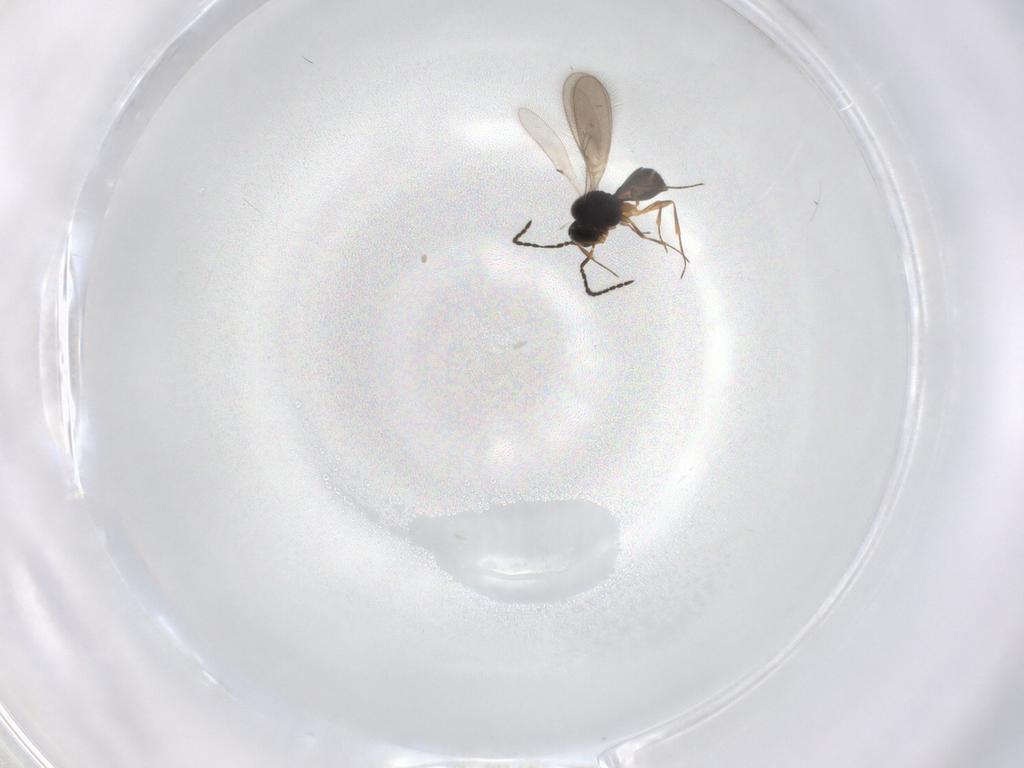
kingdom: Animalia
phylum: Arthropoda
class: Insecta
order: Hymenoptera
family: Scelionidae
